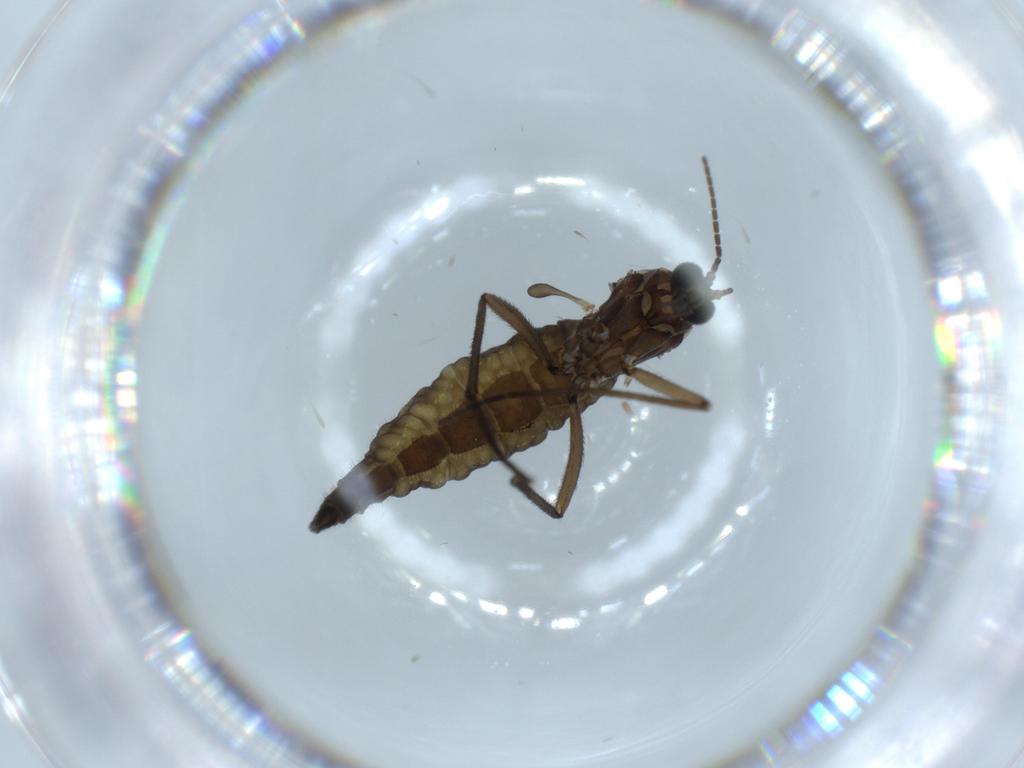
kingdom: Animalia
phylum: Arthropoda
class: Insecta
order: Diptera
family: Sciaridae
